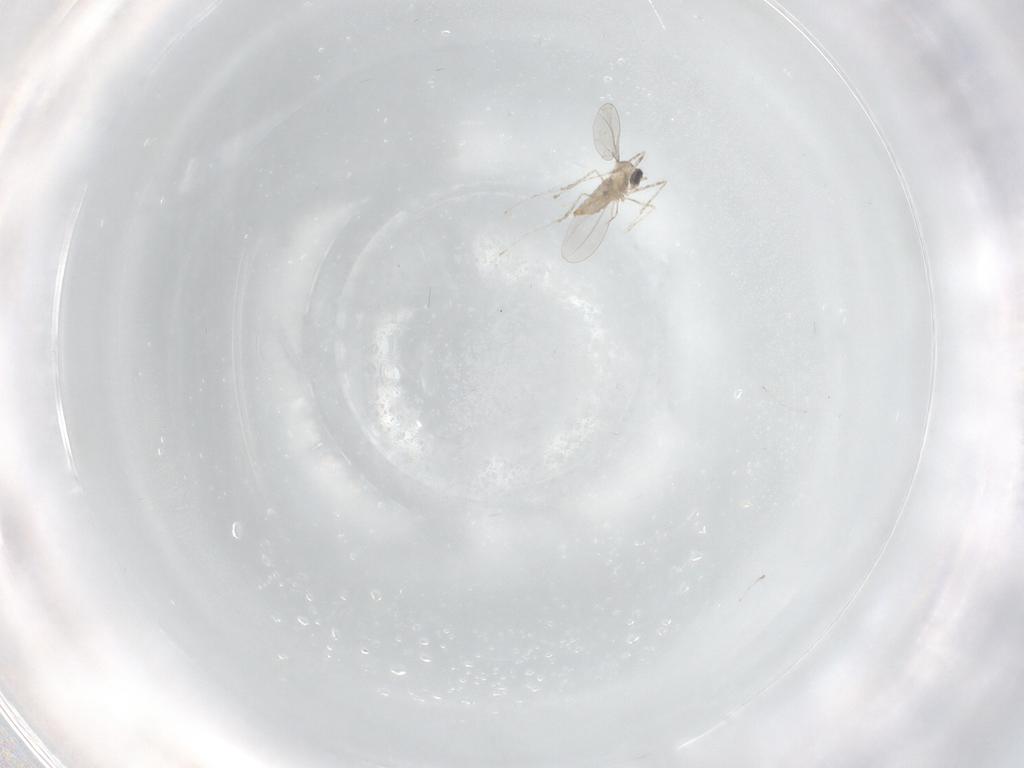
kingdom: Animalia
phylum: Arthropoda
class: Insecta
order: Diptera
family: Cecidomyiidae
